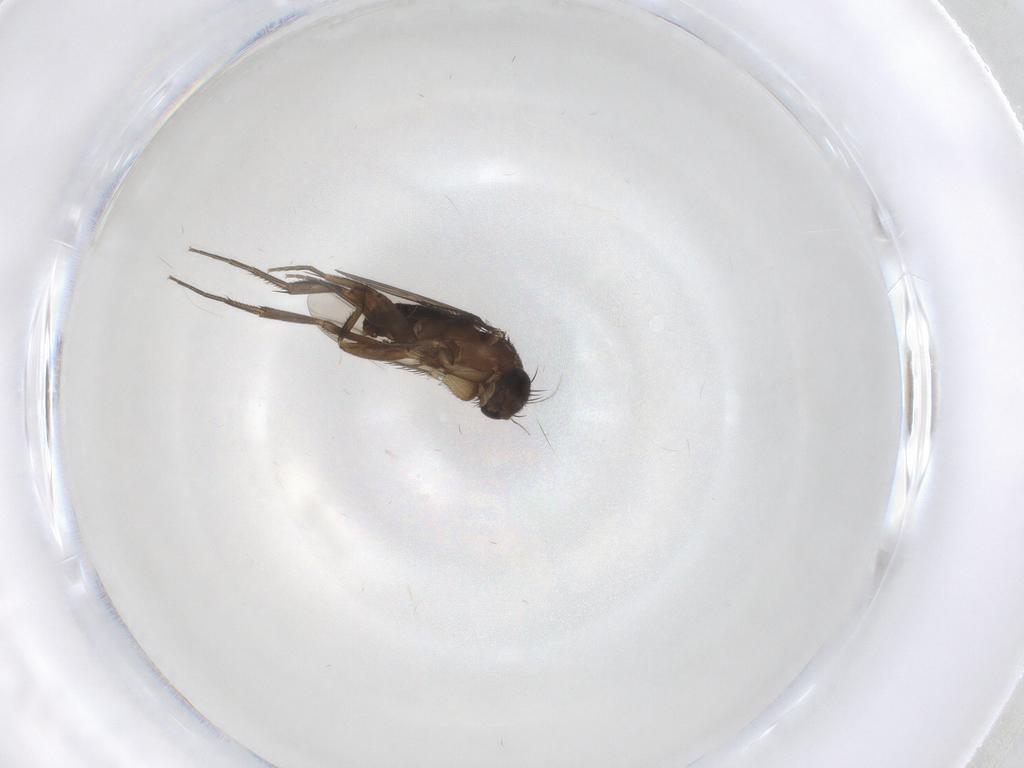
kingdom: Animalia
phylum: Arthropoda
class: Insecta
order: Diptera
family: Phoridae
